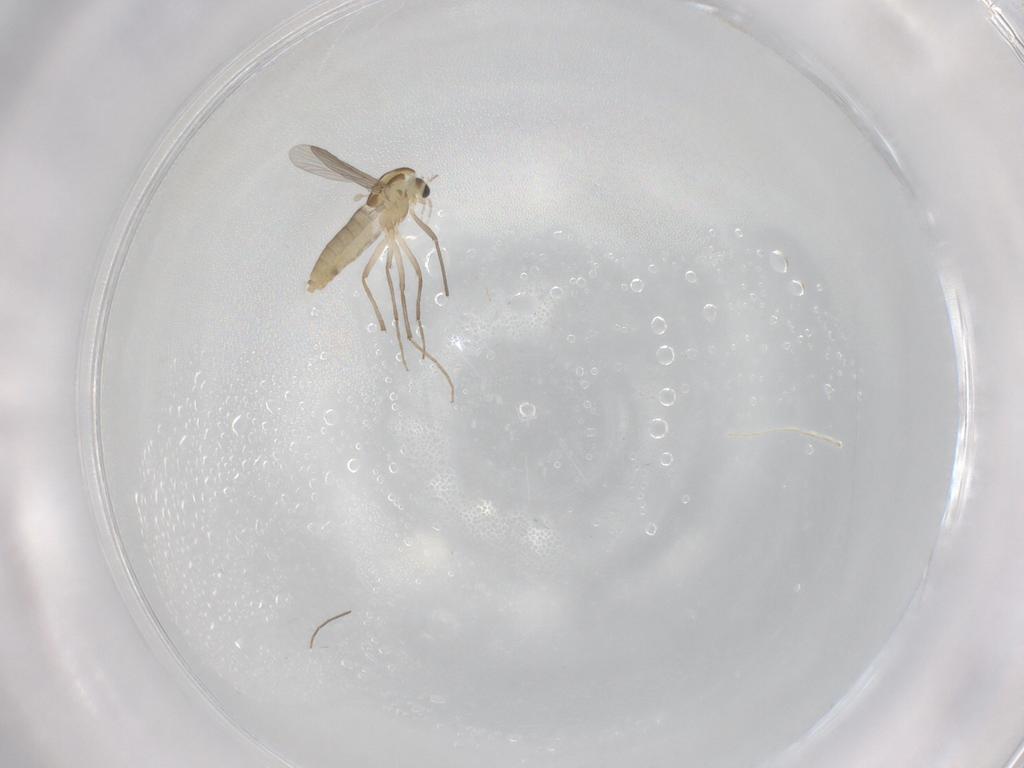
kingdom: Animalia
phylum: Arthropoda
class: Insecta
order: Diptera
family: Chironomidae
